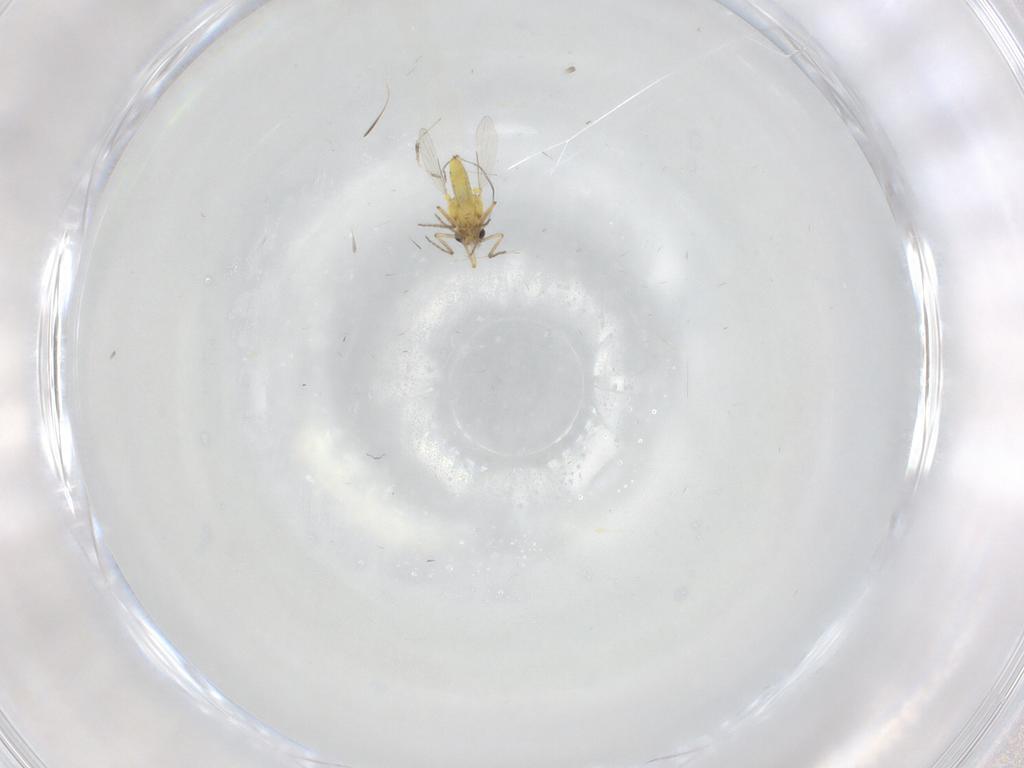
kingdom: Animalia
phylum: Arthropoda
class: Insecta
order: Diptera
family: Ceratopogonidae
